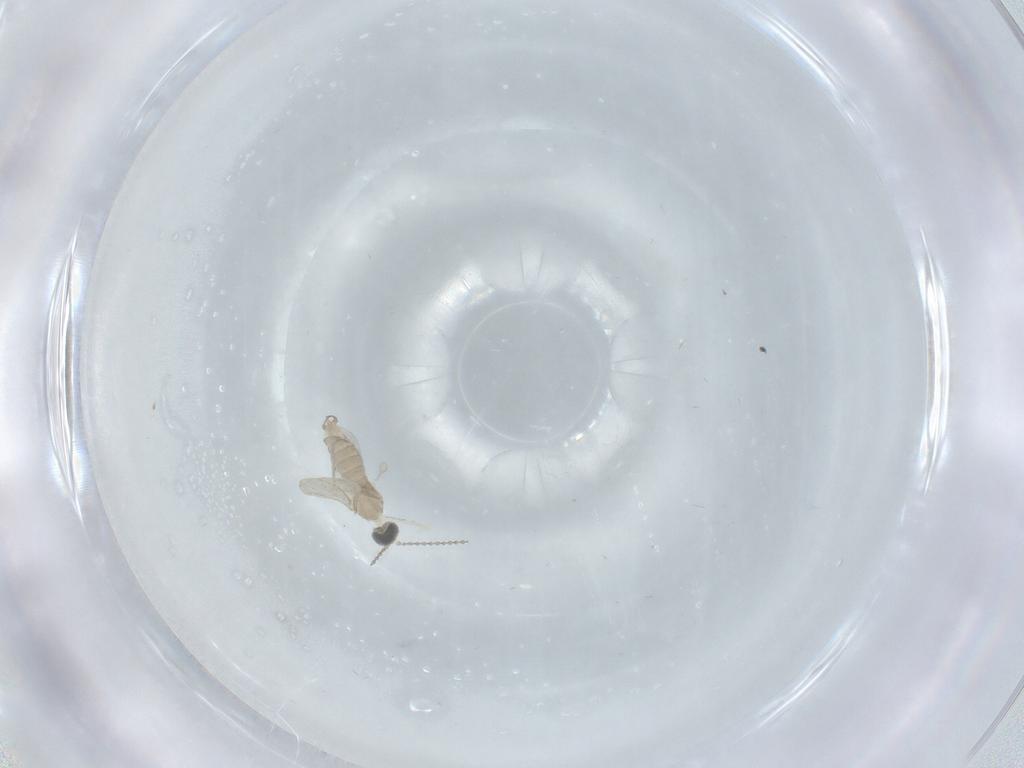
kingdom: Animalia
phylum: Arthropoda
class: Insecta
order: Diptera
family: Cecidomyiidae
